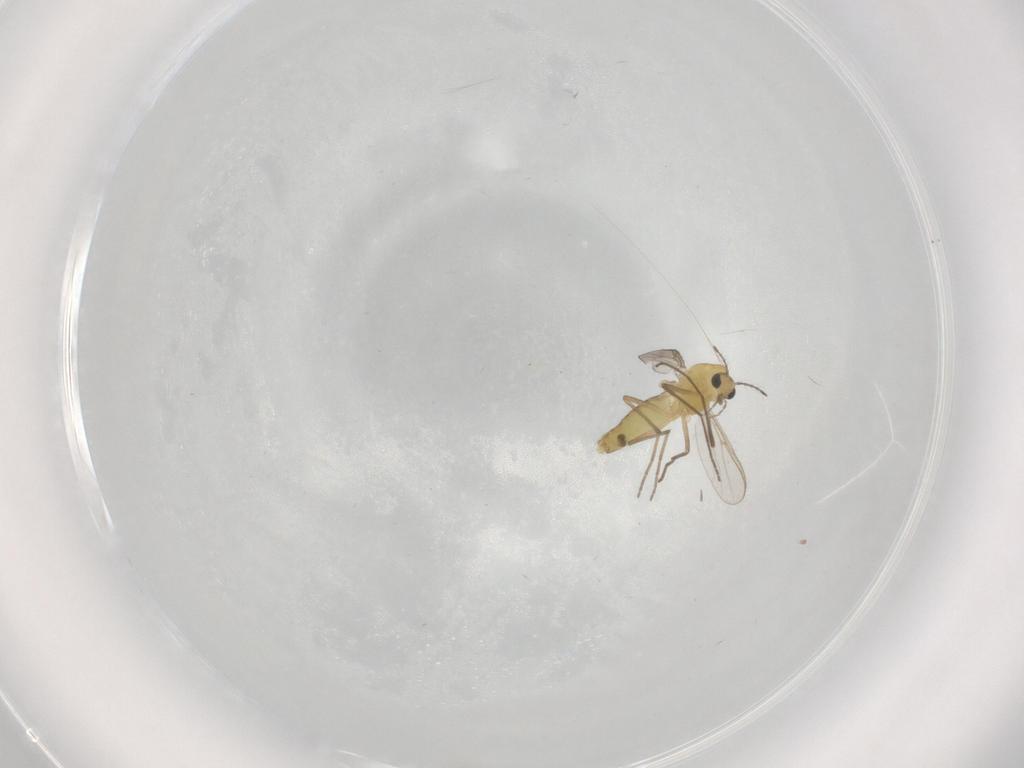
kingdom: Animalia
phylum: Arthropoda
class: Insecta
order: Diptera
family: Chironomidae
